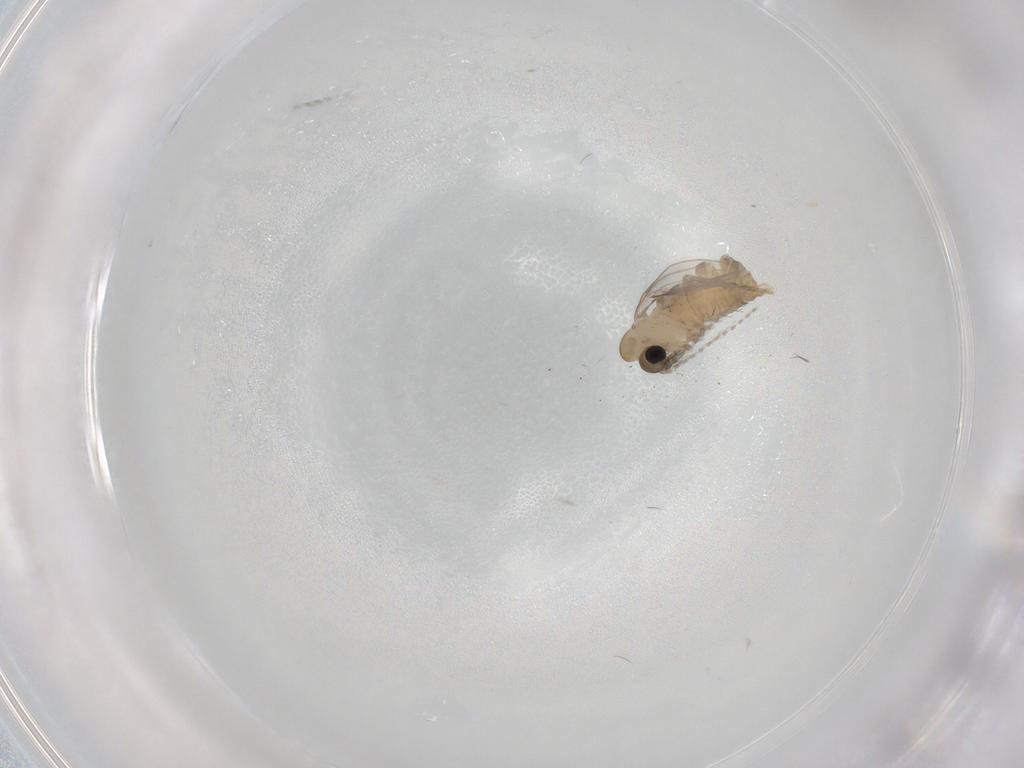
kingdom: Animalia
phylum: Arthropoda
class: Insecta
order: Diptera
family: Psychodidae
